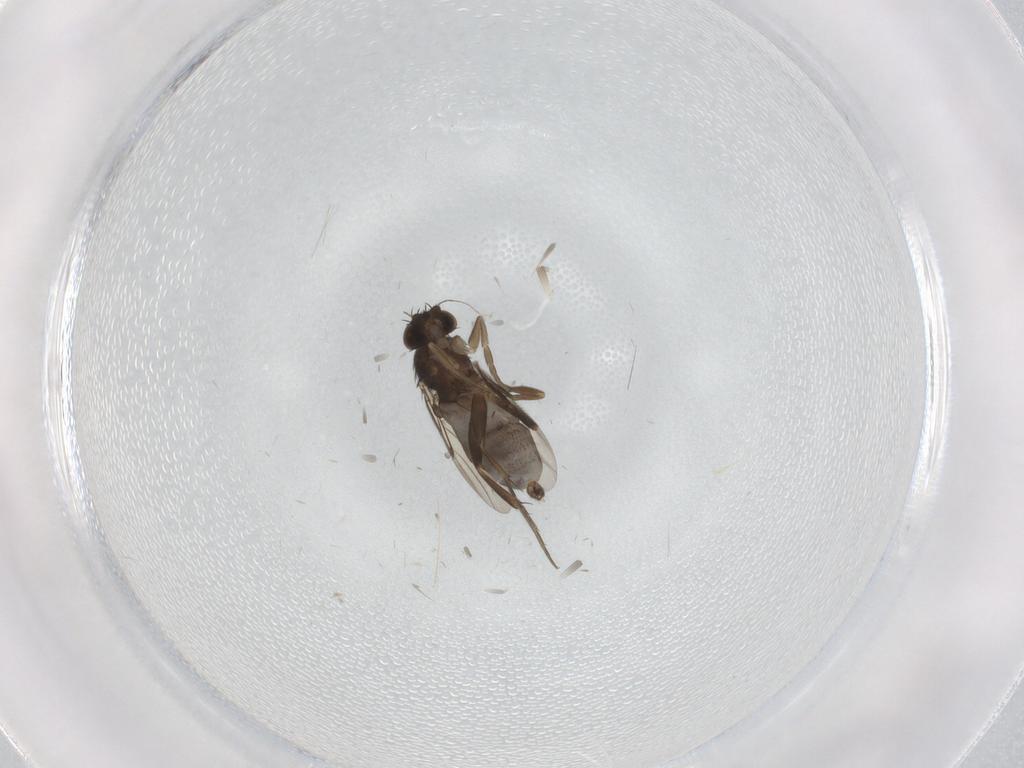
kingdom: Animalia
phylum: Arthropoda
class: Insecta
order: Diptera
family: Phoridae
